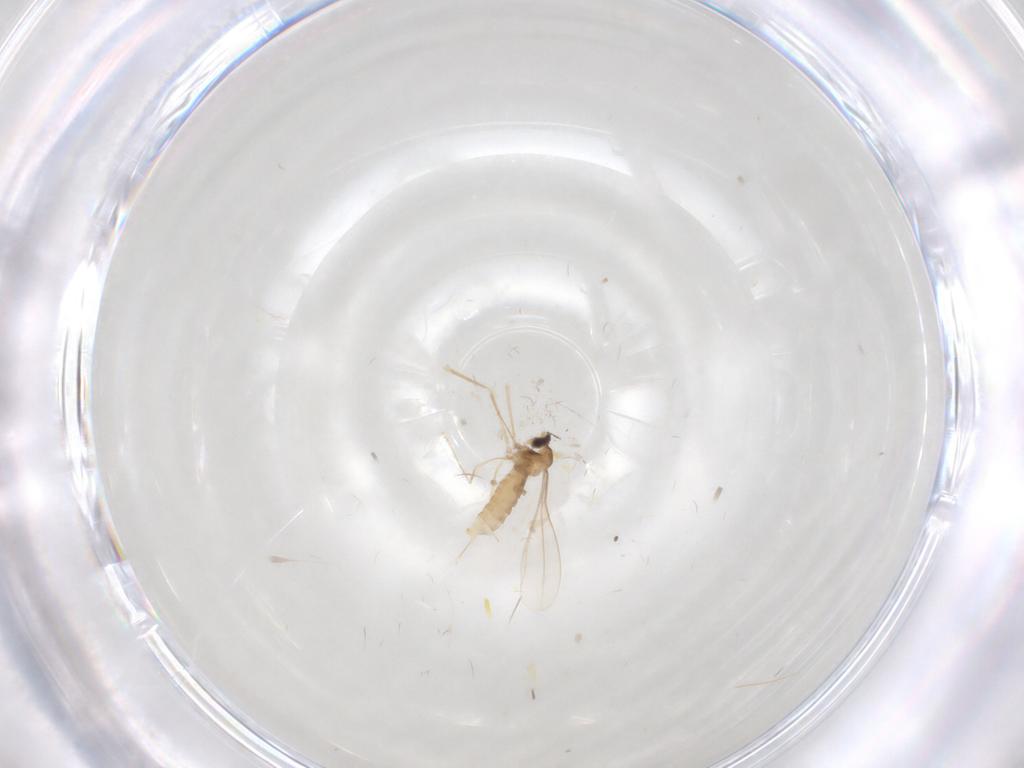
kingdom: Animalia
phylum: Arthropoda
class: Insecta
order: Diptera
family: Cecidomyiidae
